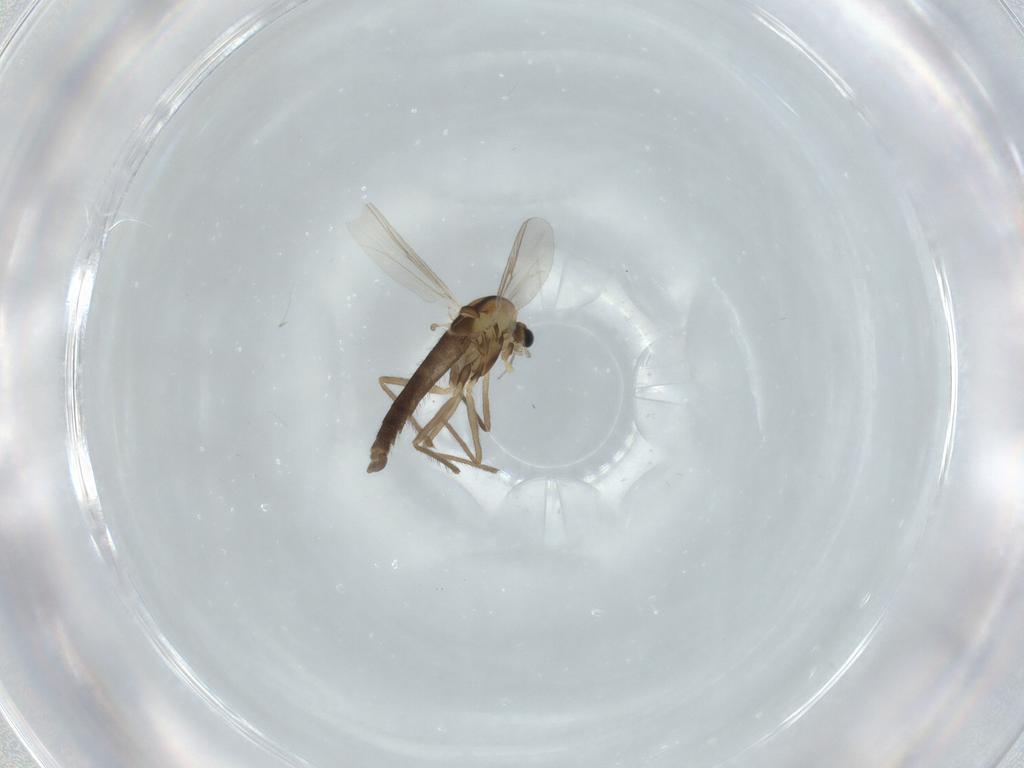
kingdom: Animalia
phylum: Arthropoda
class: Insecta
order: Diptera
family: Chironomidae
